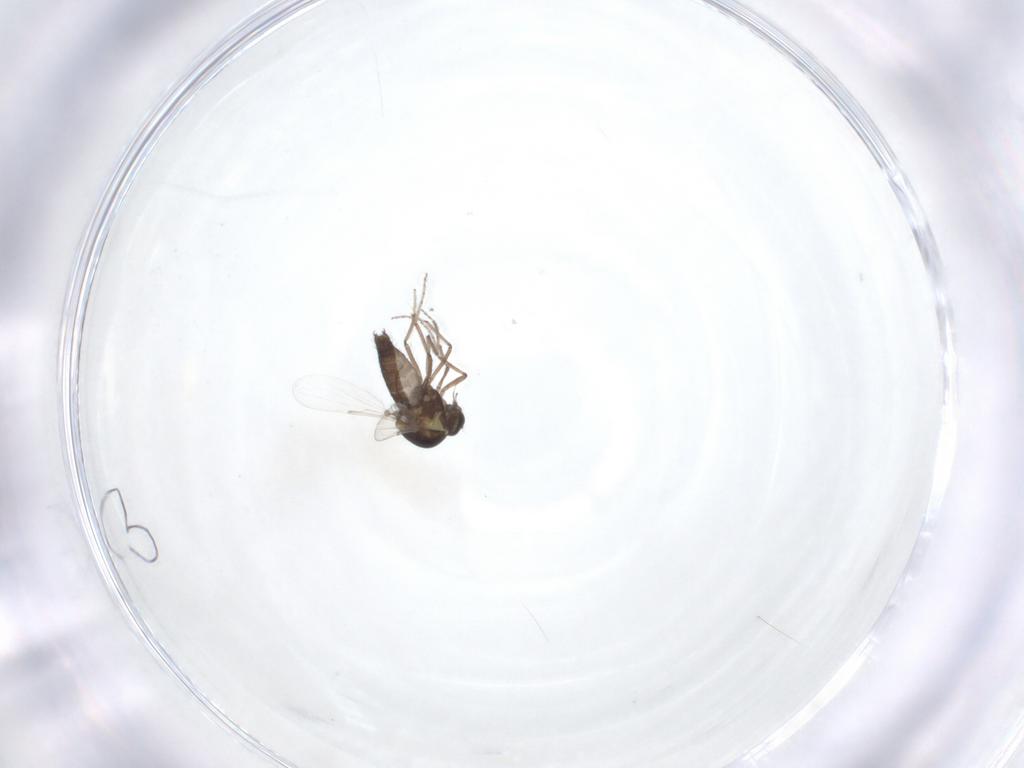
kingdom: Animalia
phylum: Arthropoda
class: Insecta
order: Diptera
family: Ceratopogonidae
